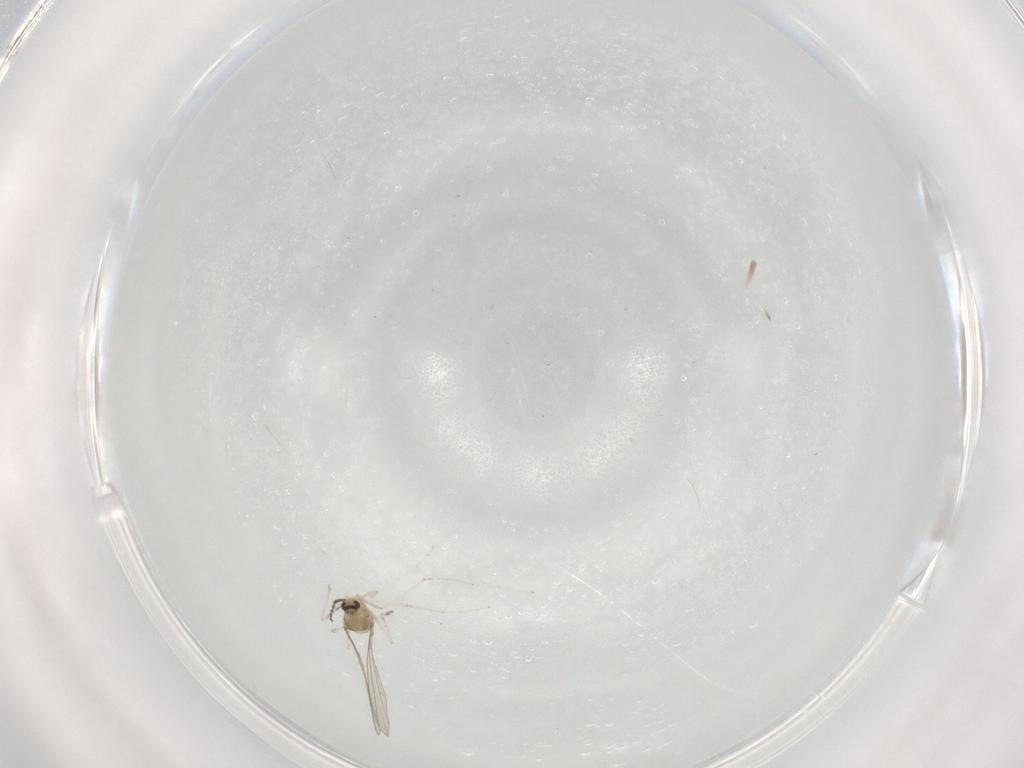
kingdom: Animalia
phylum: Arthropoda
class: Insecta
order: Diptera
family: Cecidomyiidae
